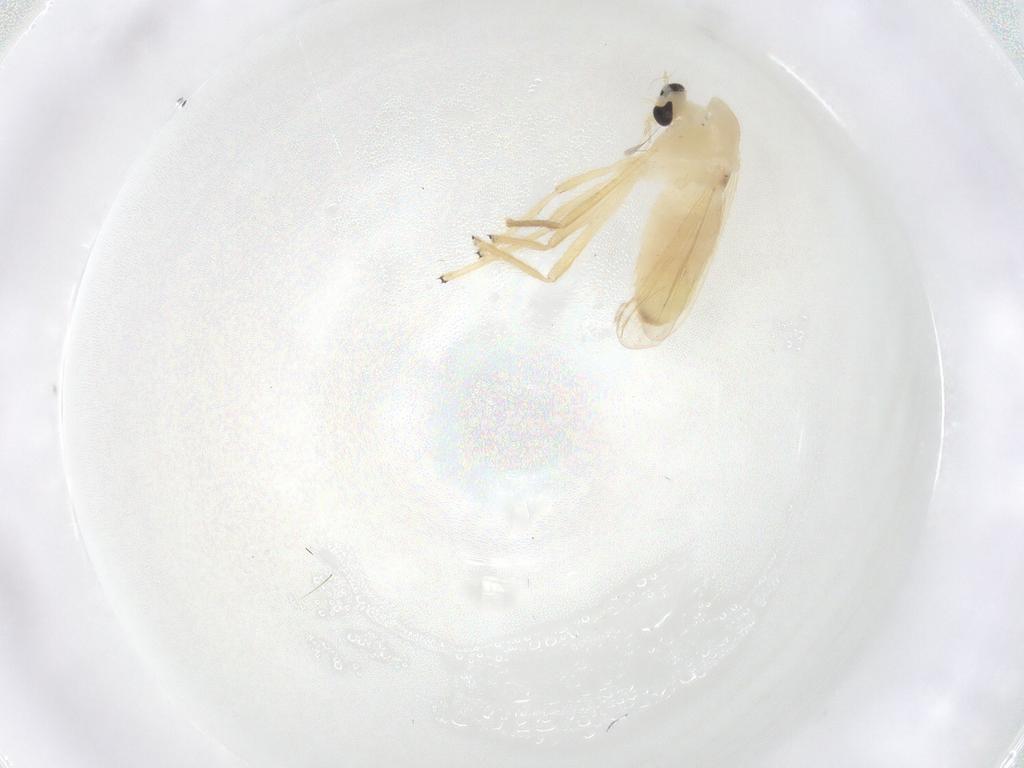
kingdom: Animalia
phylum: Arthropoda
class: Insecta
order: Diptera
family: Chironomidae
